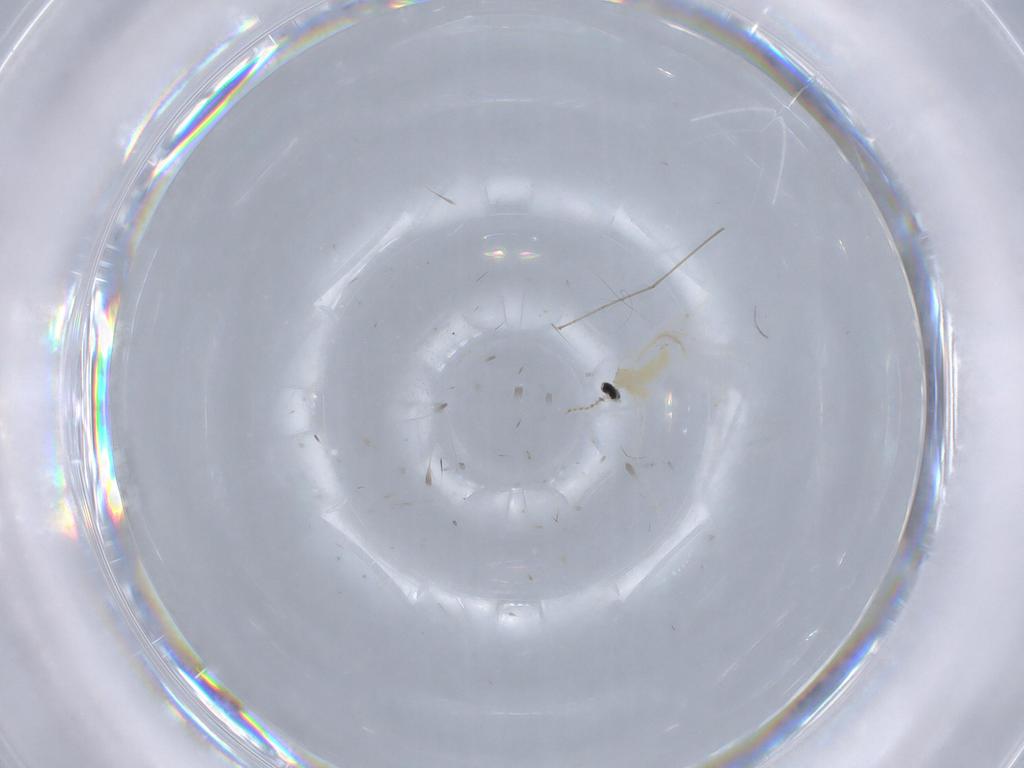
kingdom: Animalia
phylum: Arthropoda
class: Insecta
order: Diptera
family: Cecidomyiidae
